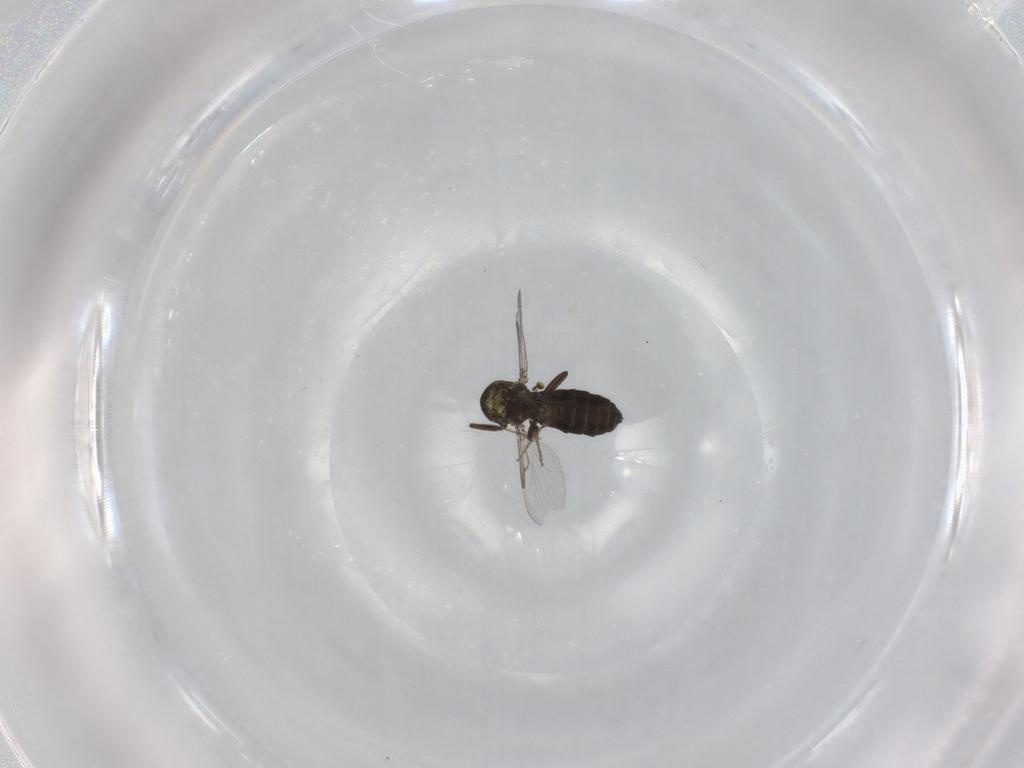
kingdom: Animalia
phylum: Arthropoda
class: Insecta
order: Diptera
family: Ceratopogonidae
